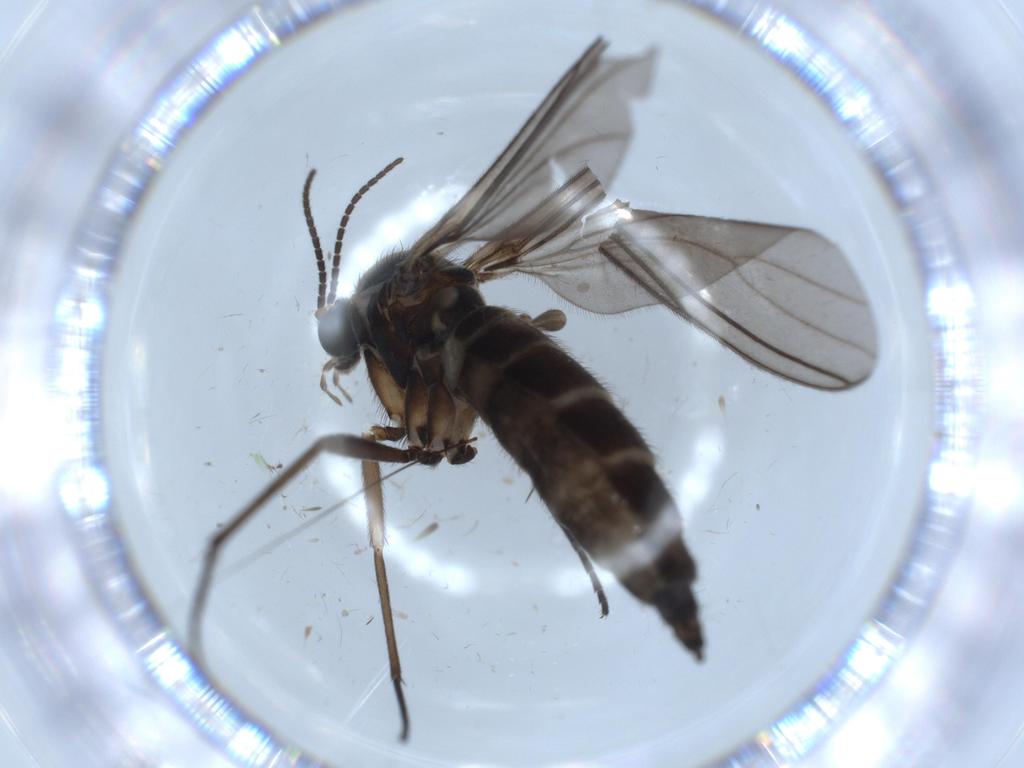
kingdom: Animalia
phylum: Arthropoda
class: Insecta
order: Diptera
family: Sciaridae
